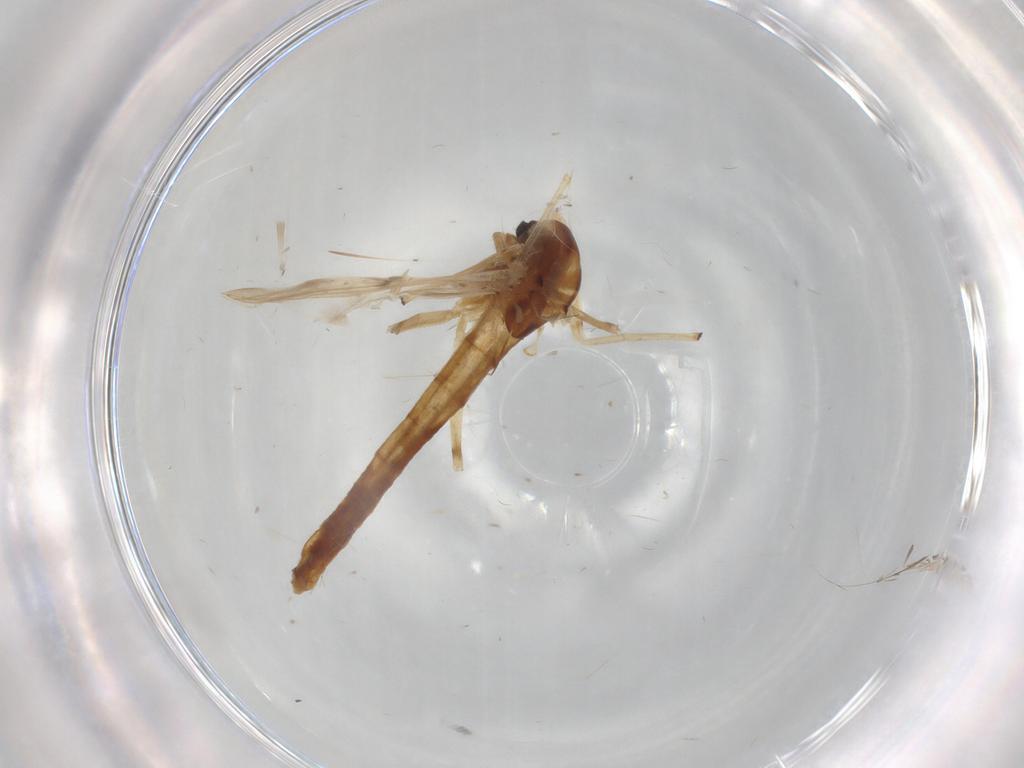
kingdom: Animalia
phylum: Arthropoda
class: Insecta
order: Diptera
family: Chironomidae
